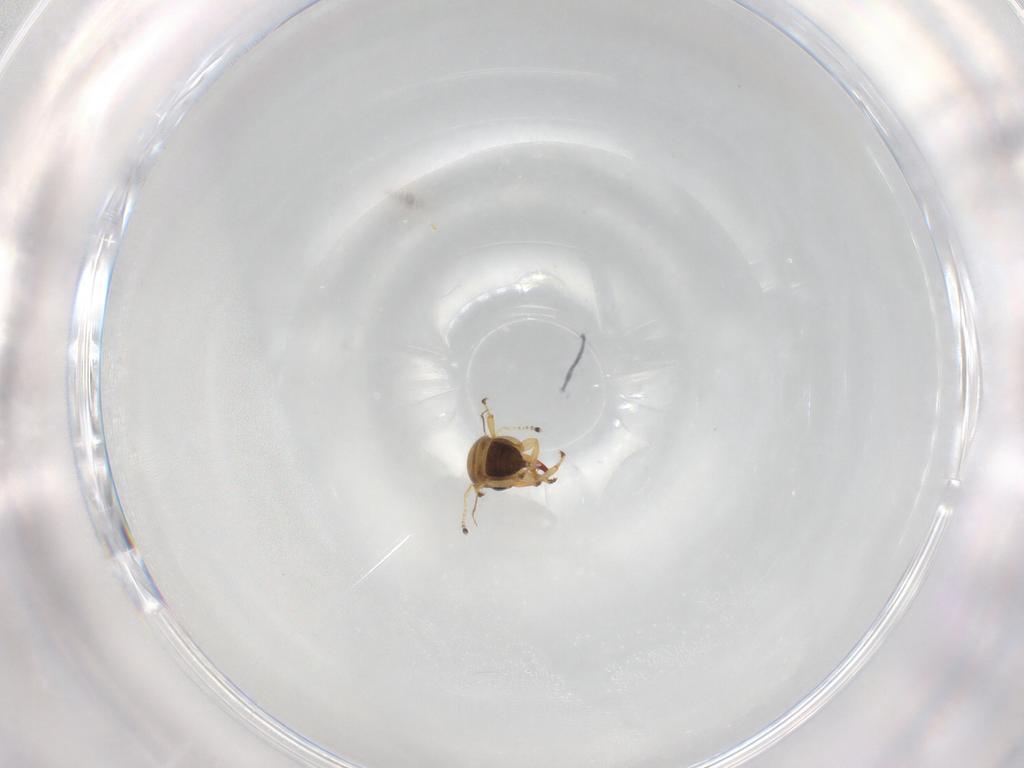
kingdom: Animalia
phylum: Arthropoda
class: Insecta
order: Hymenoptera
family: Pteromalidae
